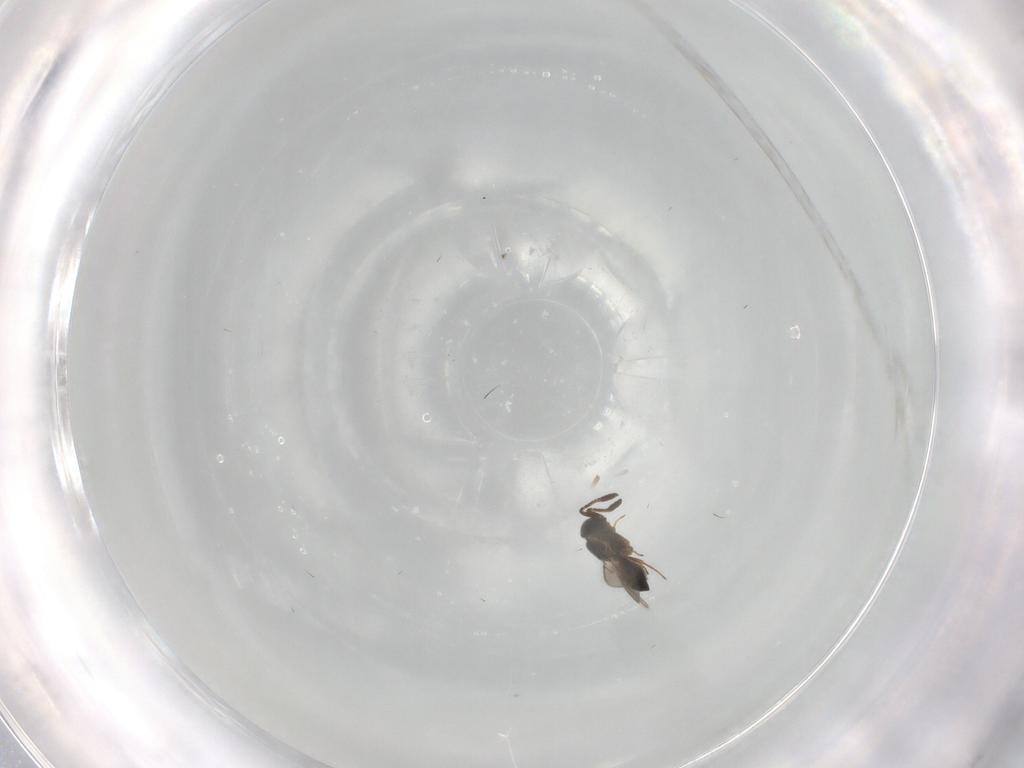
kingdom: Animalia
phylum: Arthropoda
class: Insecta
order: Hymenoptera
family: Scelionidae
